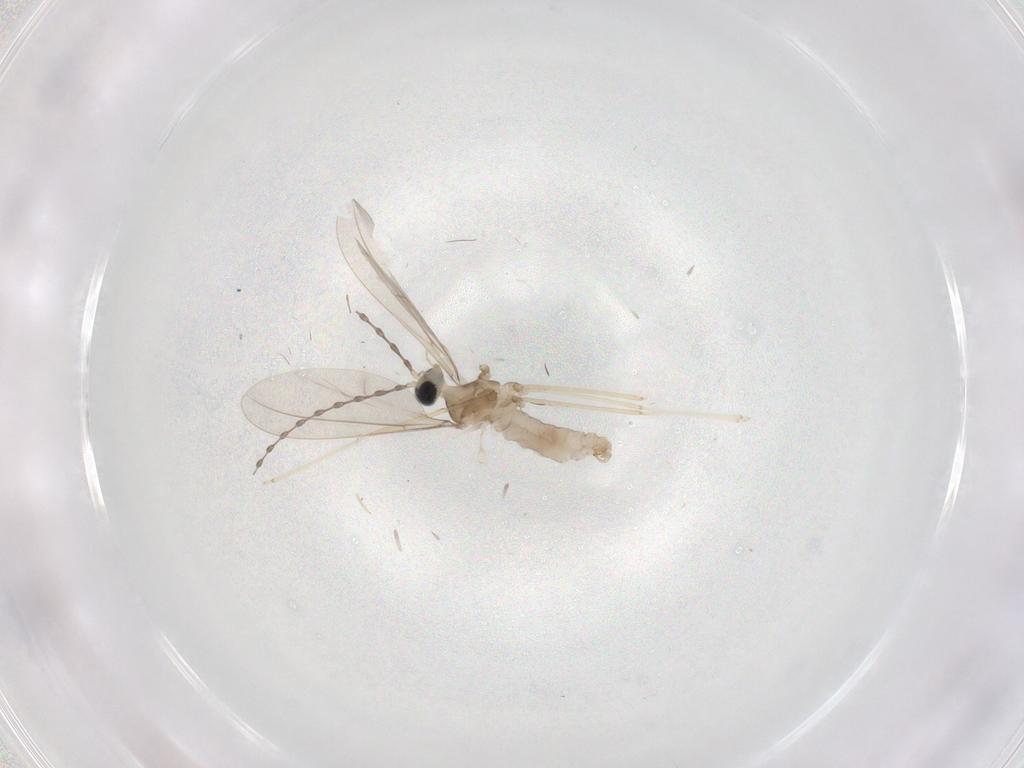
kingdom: Animalia
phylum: Arthropoda
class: Insecta
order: Diptera
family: Cecidomyiidae
